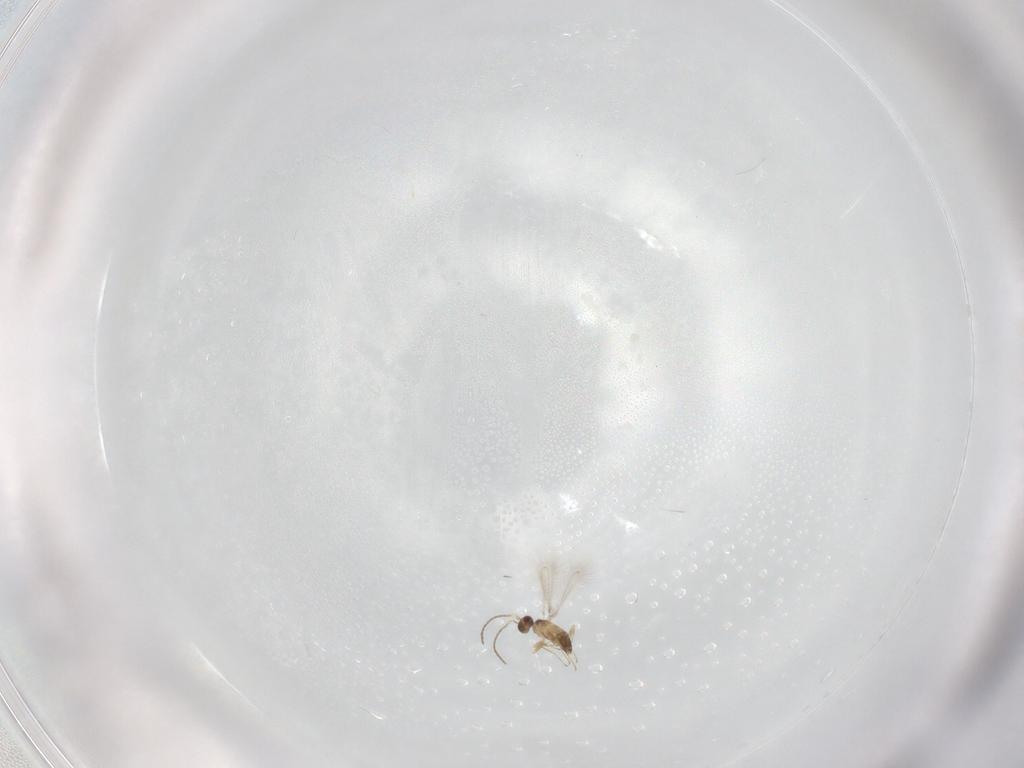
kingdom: Animalia
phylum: Arthropoda
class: Insecta
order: Hymenoptera
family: Mymaridae
